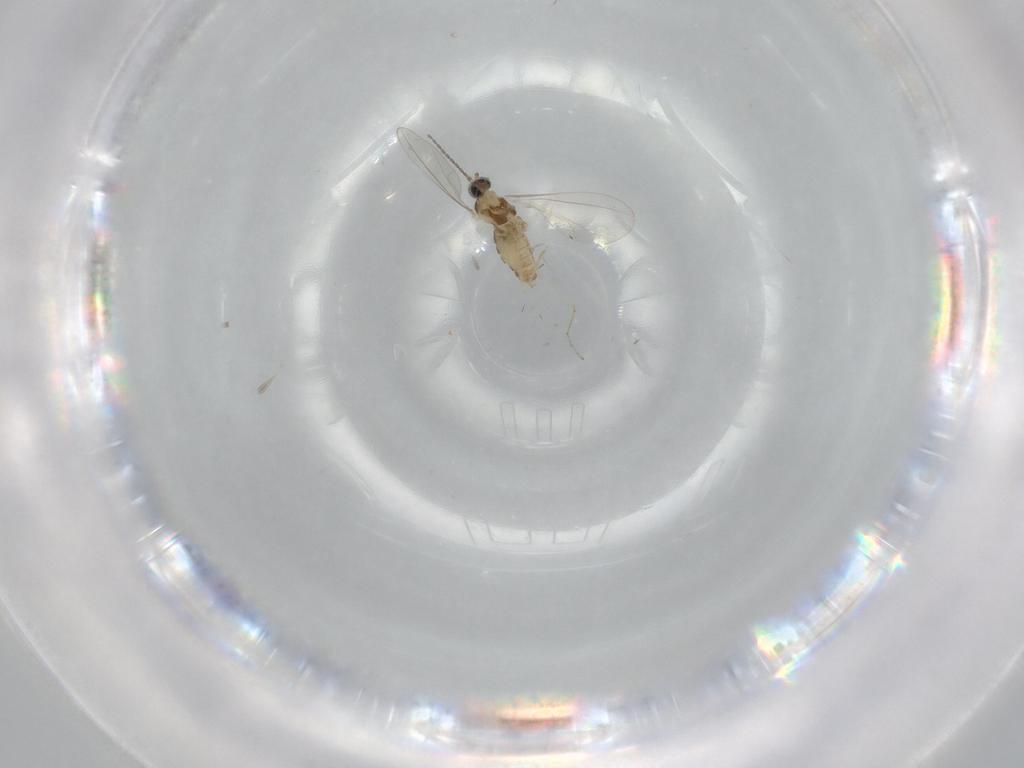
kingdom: Animalia
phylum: Arthropoda
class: Insecta
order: Diptera
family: Cecidomyiidae
